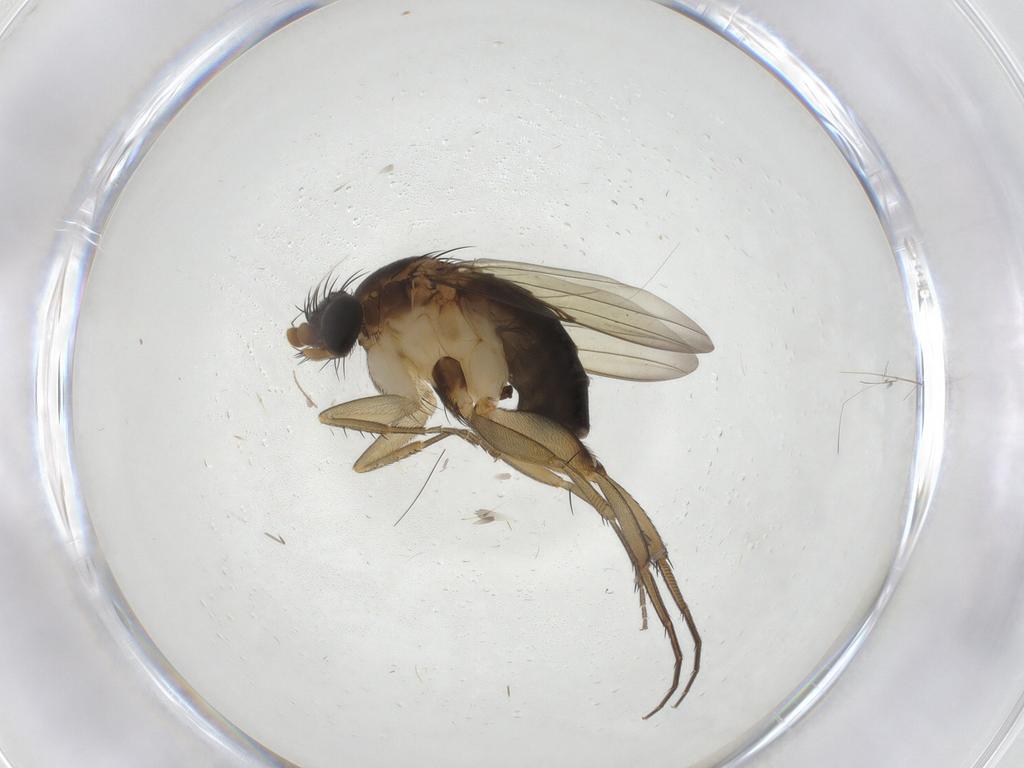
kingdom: Animalia
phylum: Arthropoda
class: Insecta
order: Diptera
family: Phoridae
